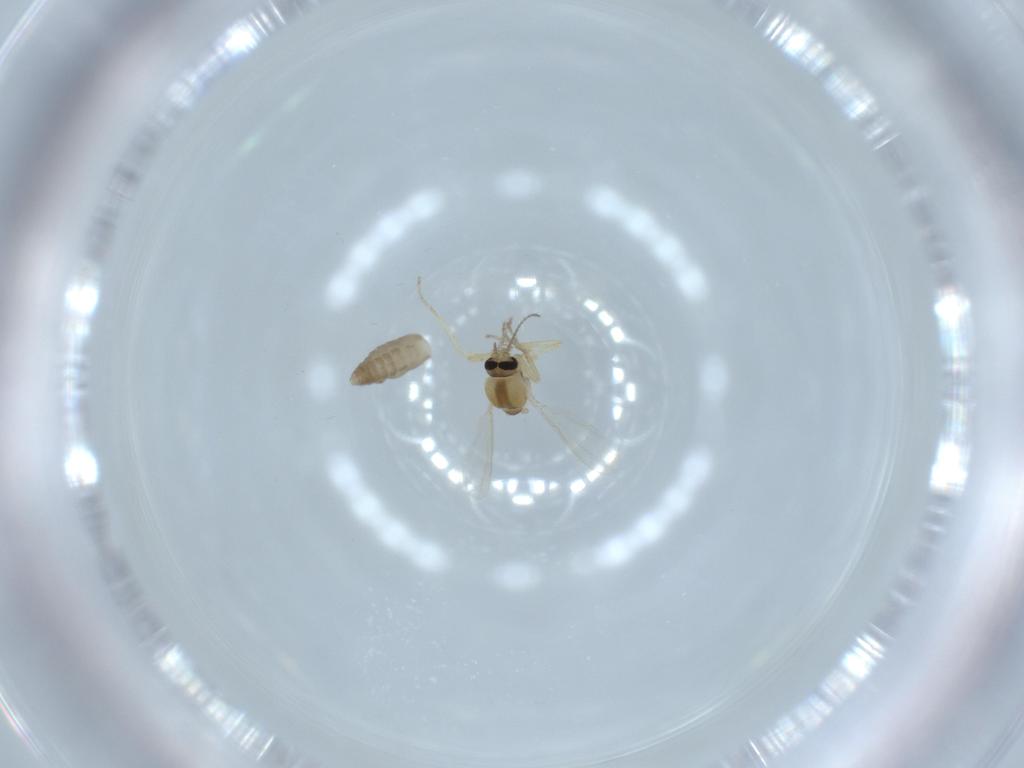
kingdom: Animalia
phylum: Arthropoda
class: Insecta
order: Diptera
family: Ceratopogonidae
